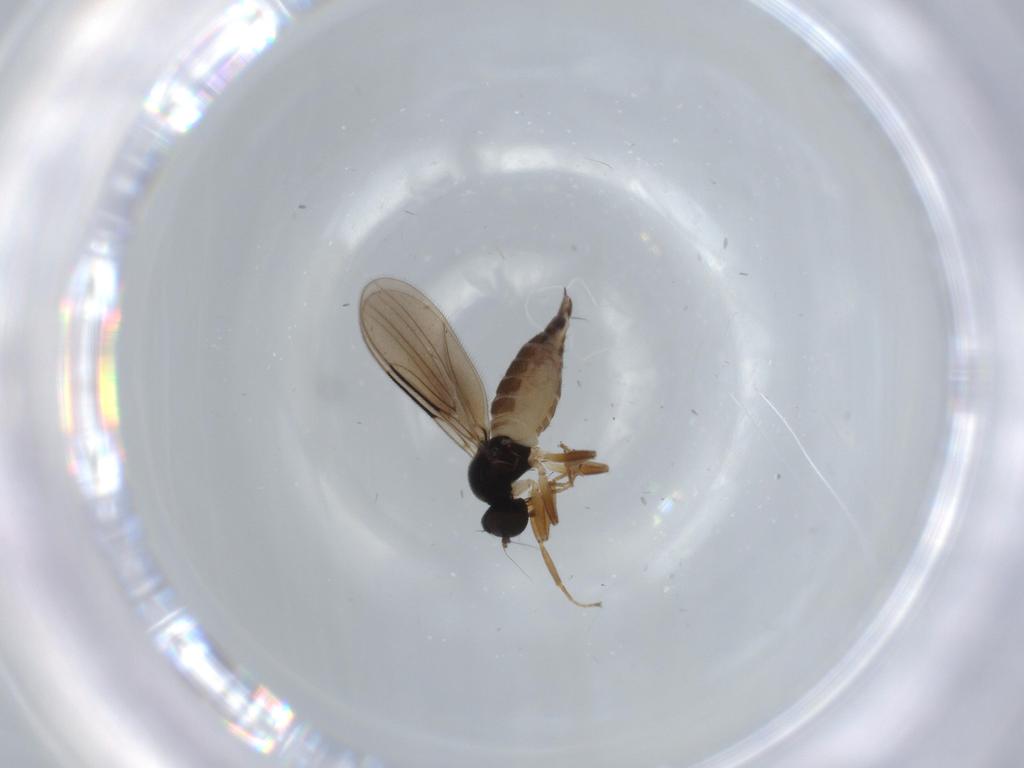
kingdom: Animalia
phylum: Arthropoda
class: Insecta
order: Diptera
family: Hybotidae
